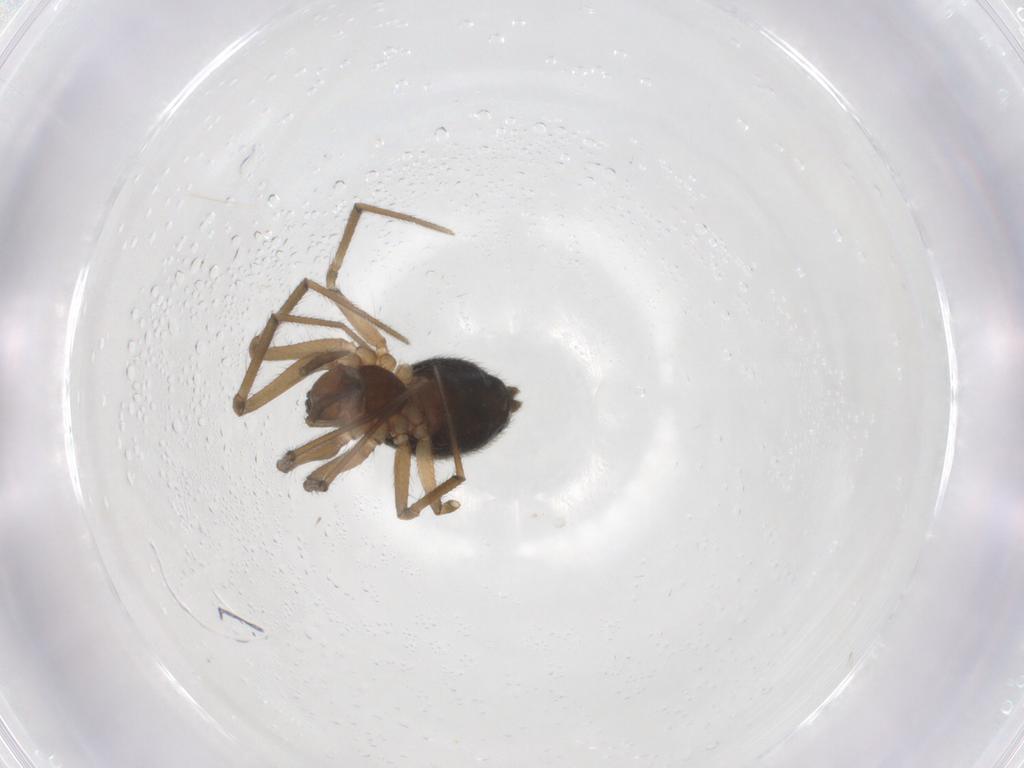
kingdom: Animalia
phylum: Arthropoda
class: Arachnida
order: Araneae
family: Linyphiidae
